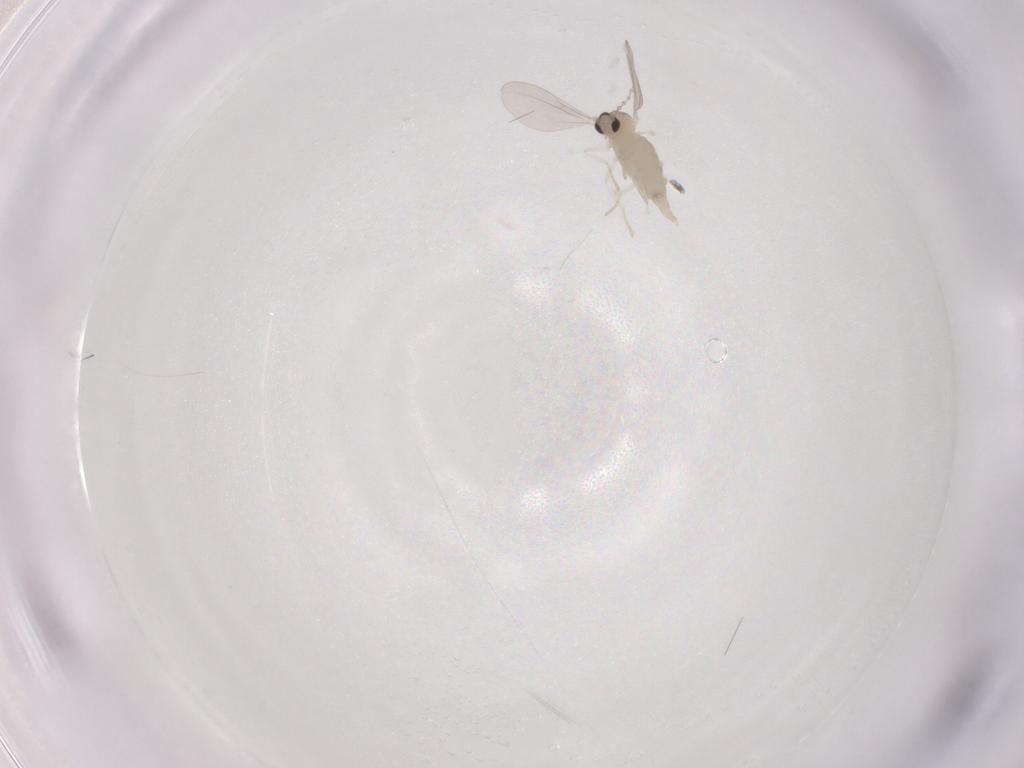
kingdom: Animalia
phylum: Arthropoda
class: Insecta
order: Diptera
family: Cecidomyiidae
